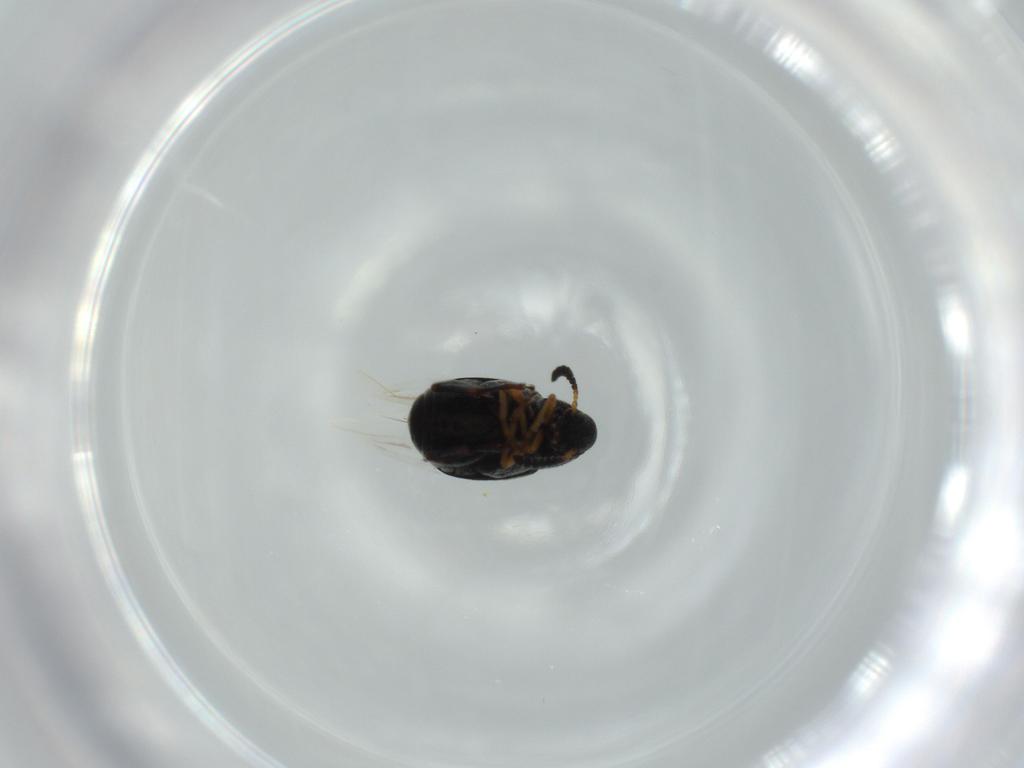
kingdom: Animalia
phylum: Arthropoda
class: Insecta
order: Coleoptera
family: Chrysomelidae
